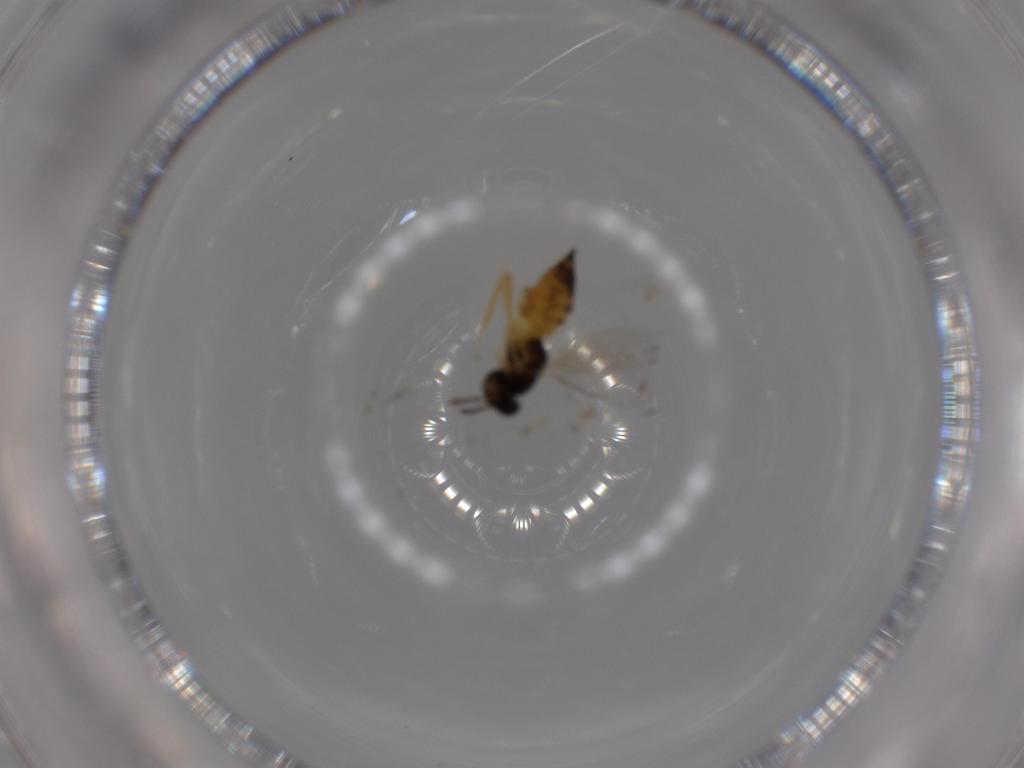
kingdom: Animalia
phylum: Arthropoda
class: Insecta
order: Hymenoptera
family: Eulophidae
